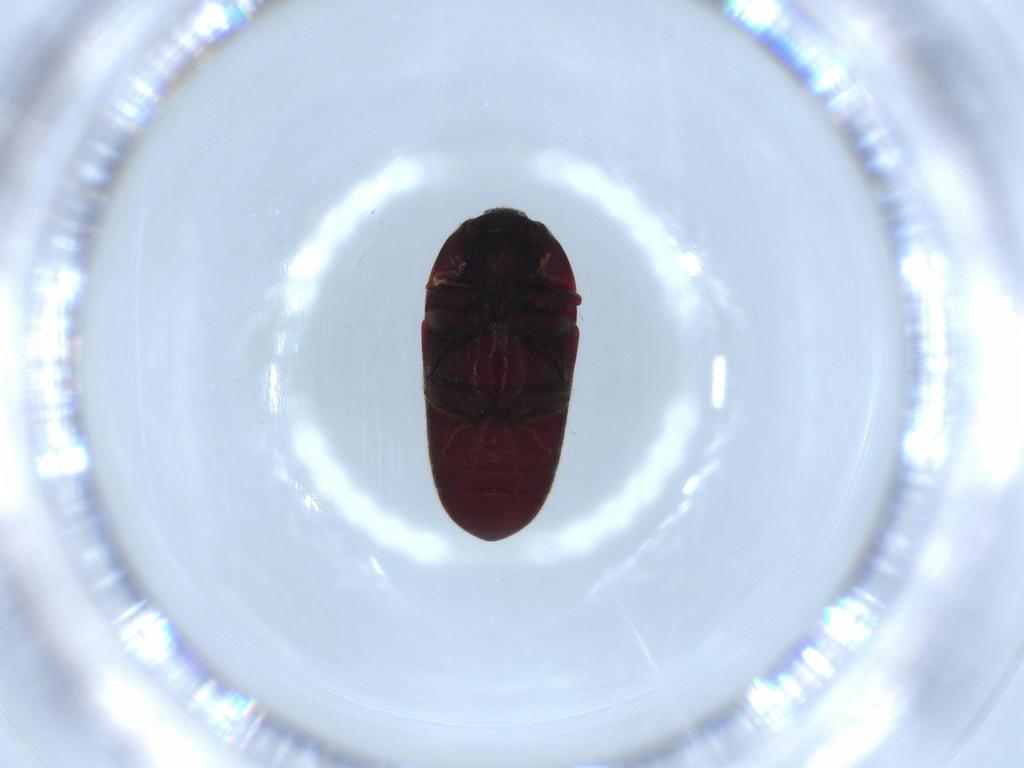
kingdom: Animalia
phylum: Arthropoda
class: Insecta
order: Coleoptera
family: Throscidae
